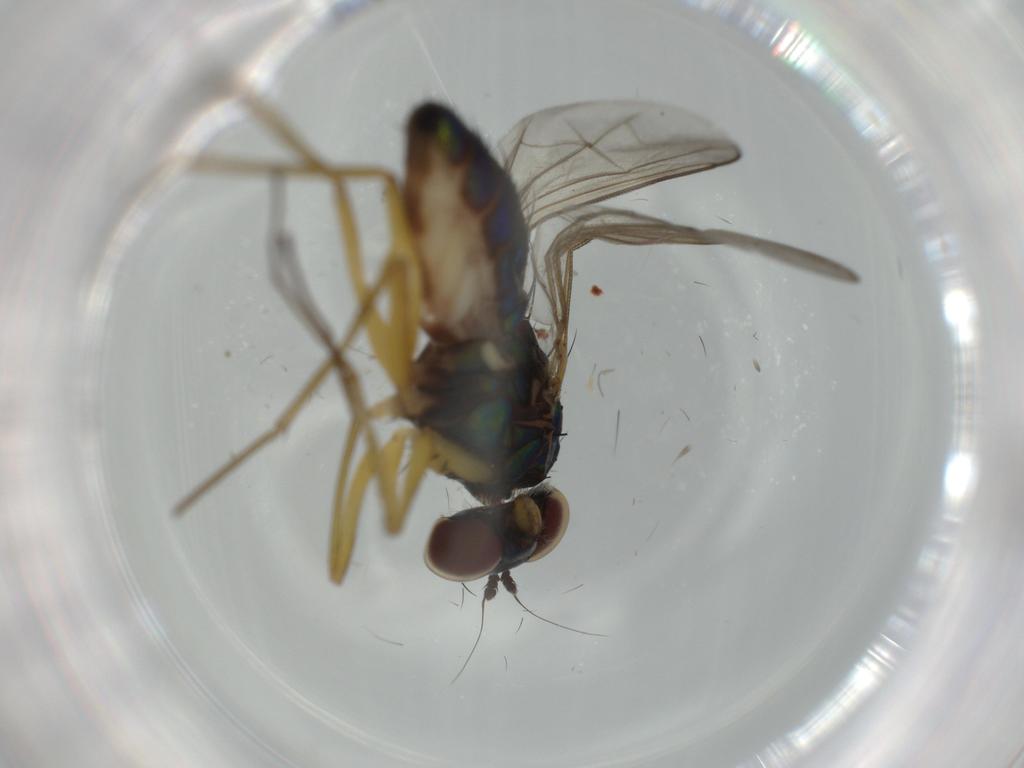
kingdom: Animalia
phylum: Arthropoda
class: Insecta
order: Diptera
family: Dolichopodidae
